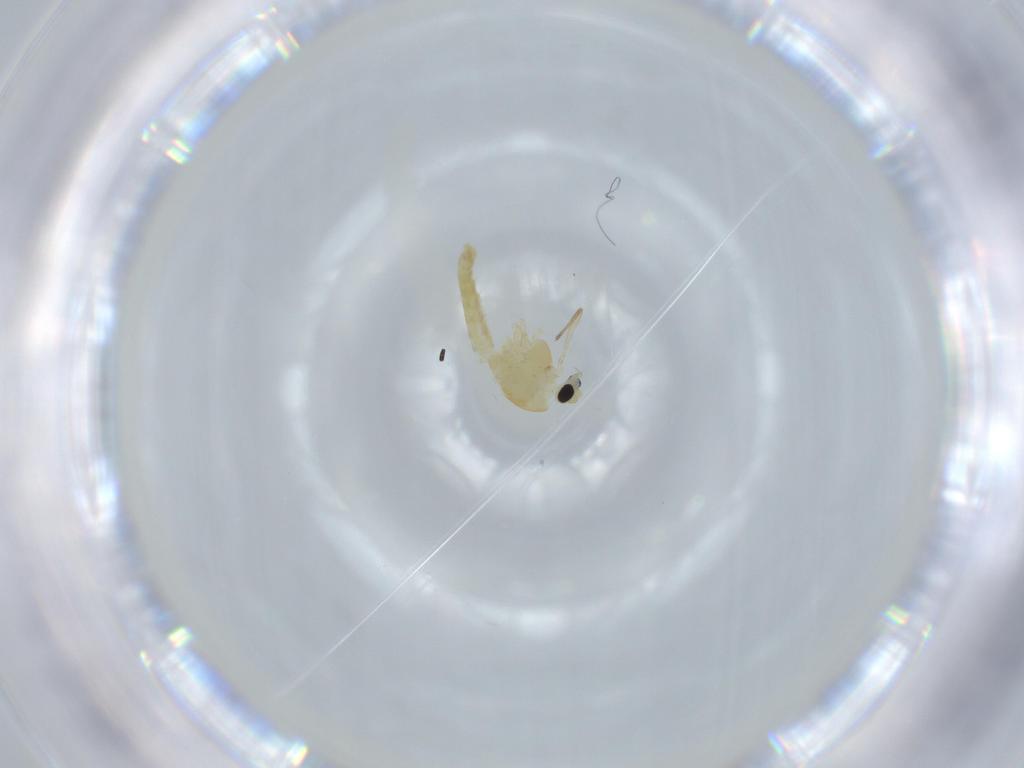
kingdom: Animalia
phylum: Arthropoda
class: Insecta
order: Diptera
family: Chironomidae
